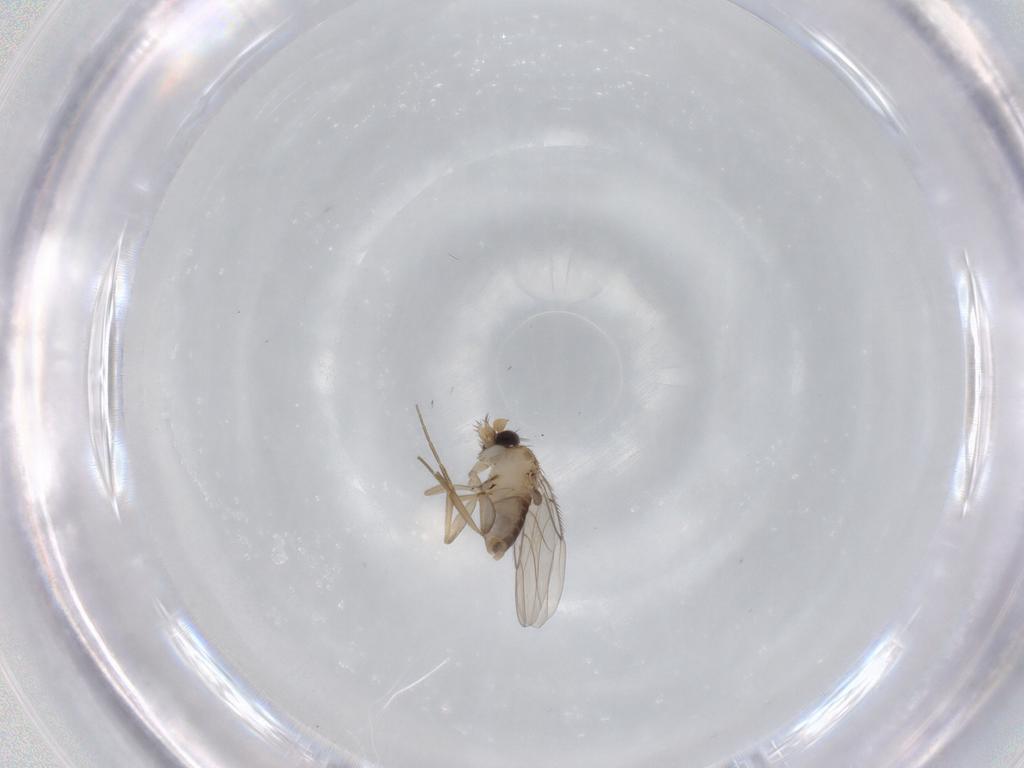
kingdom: Animalia
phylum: Arthropoda
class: Insecta
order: Diptera
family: Phoridae
